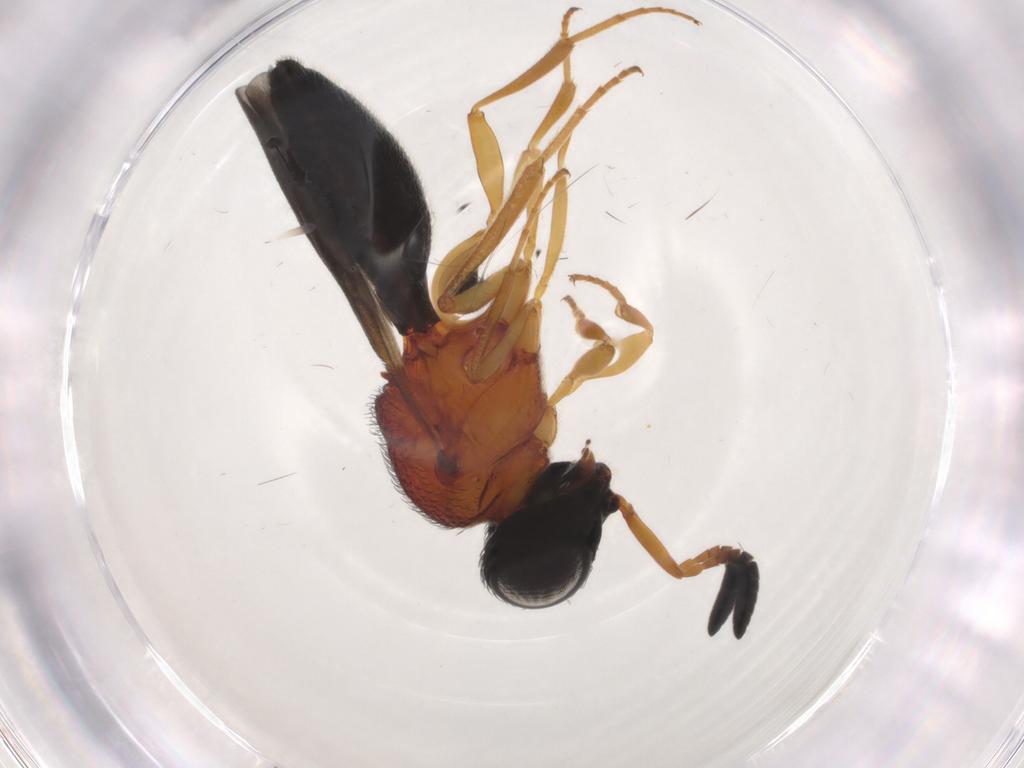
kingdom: Animalia
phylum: Arthropoda
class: Insecta
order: Hymenoptera
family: Scelionidae
